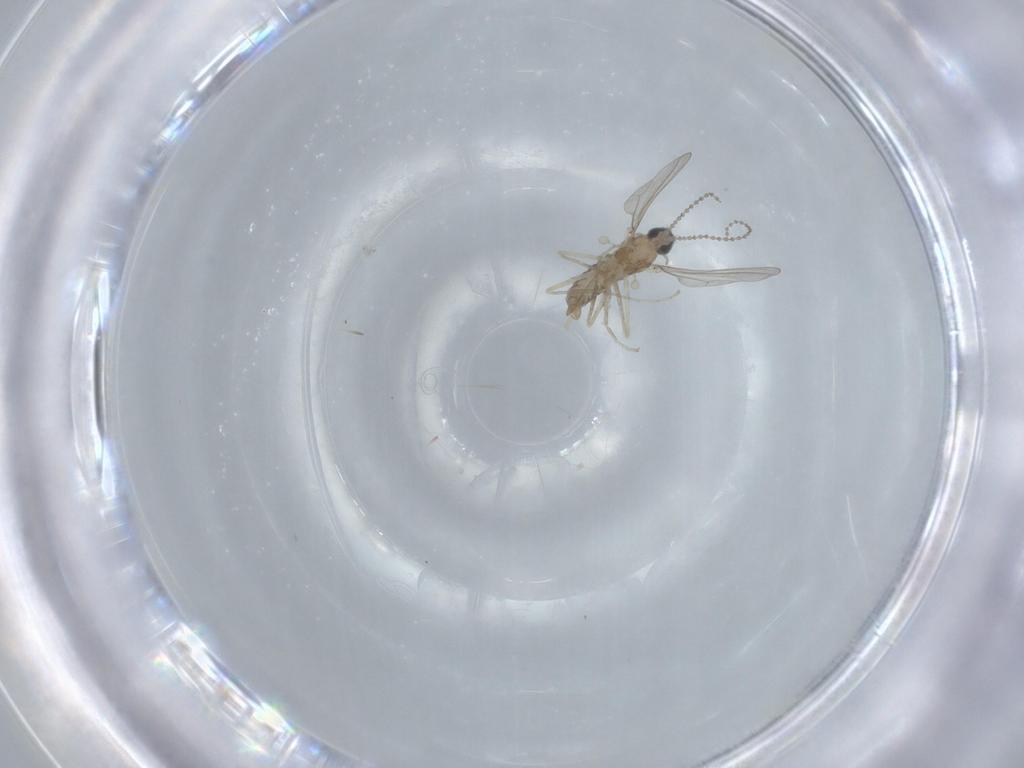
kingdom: Animalia
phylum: Arthropoda
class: Insecta
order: Diptera
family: Cecidomyiidae
